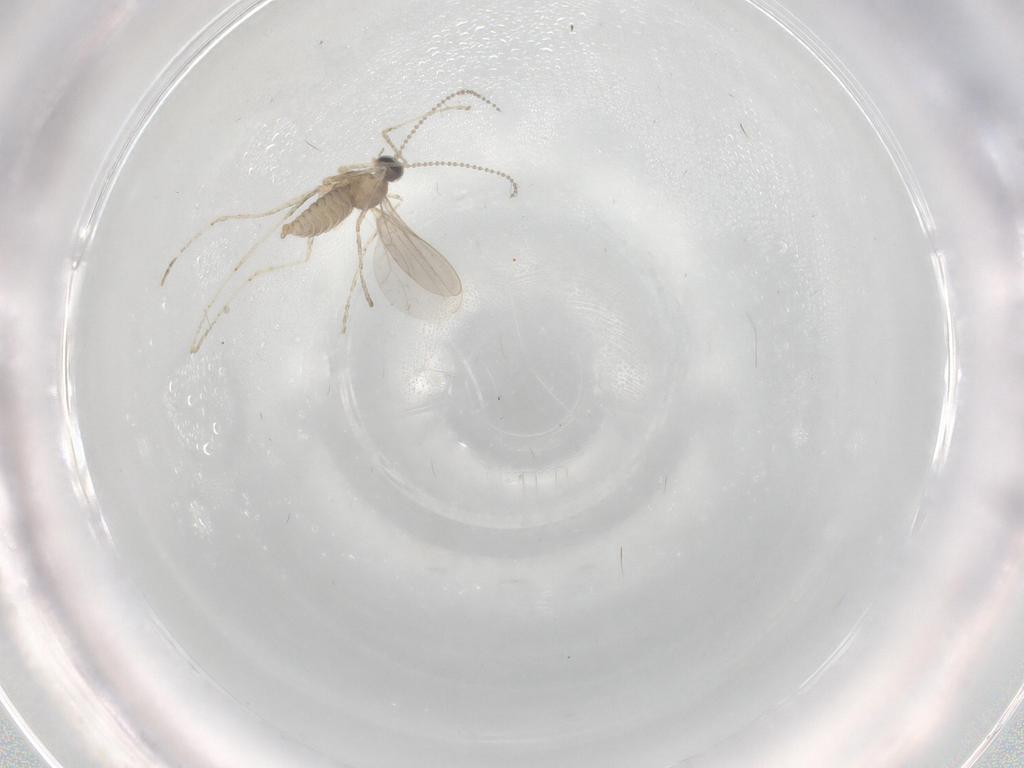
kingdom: Animalia
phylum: Arthropoda
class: Insecta
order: Diptera
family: Cecidomyiidae
